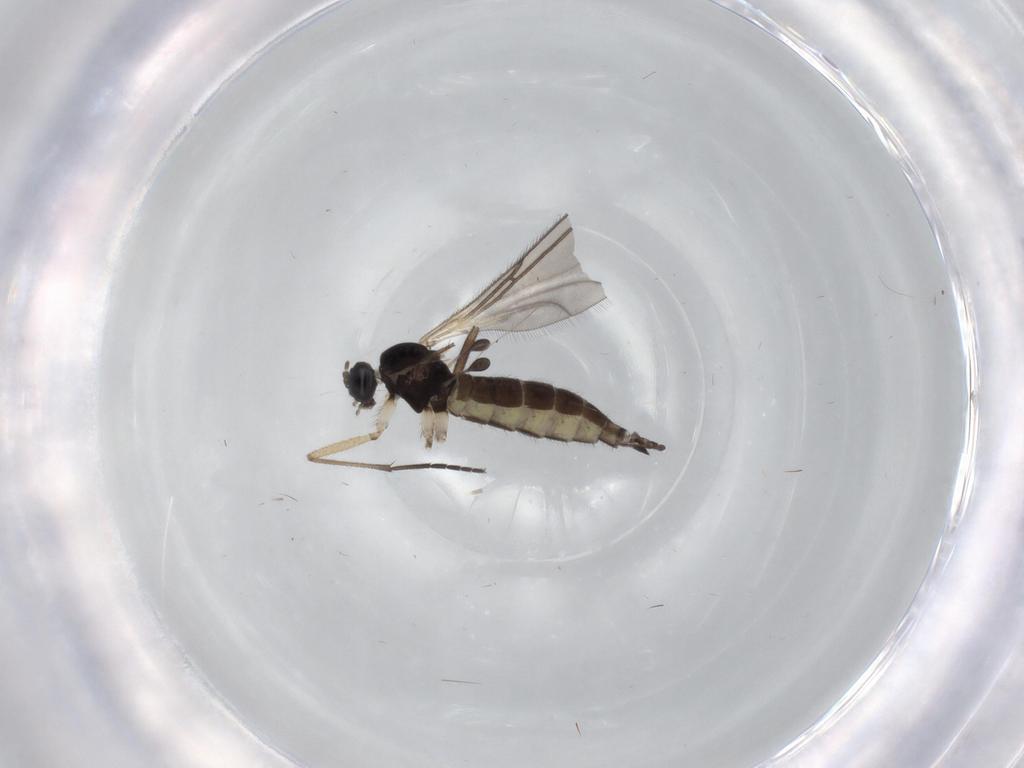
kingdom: Animalia
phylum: Arthropoda
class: Insecta
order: Diptera
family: Sciaridae
